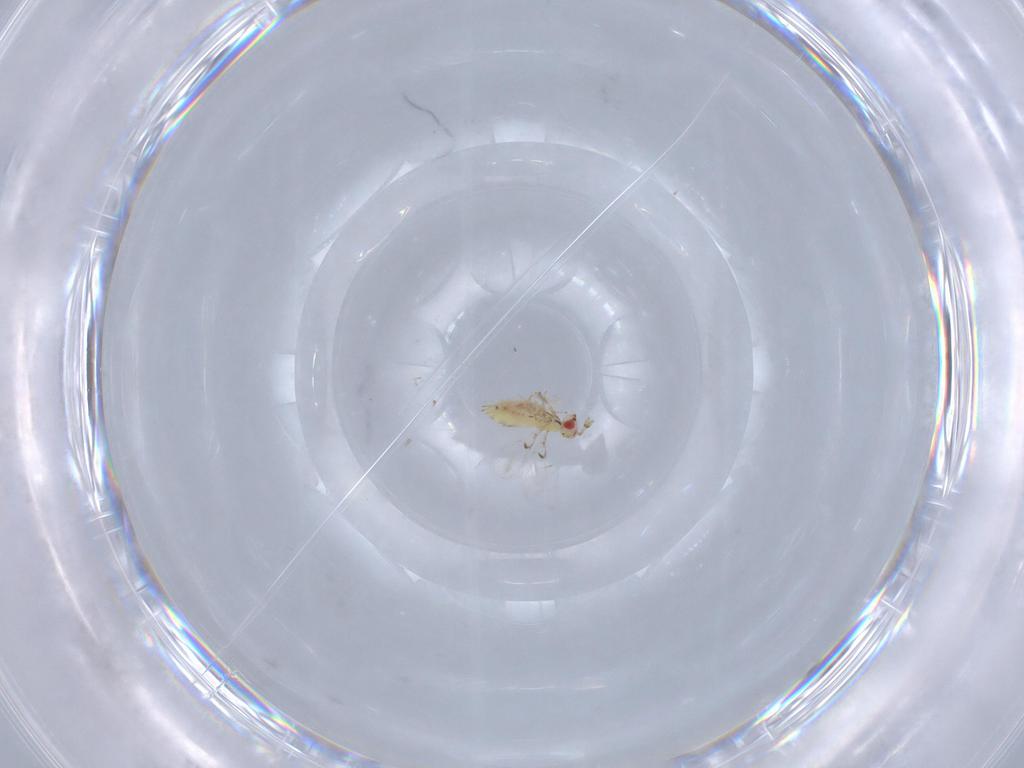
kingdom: Animalia
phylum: Arthropoda
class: Insecta
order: Hymenoptera
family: Trichogrammatidae
